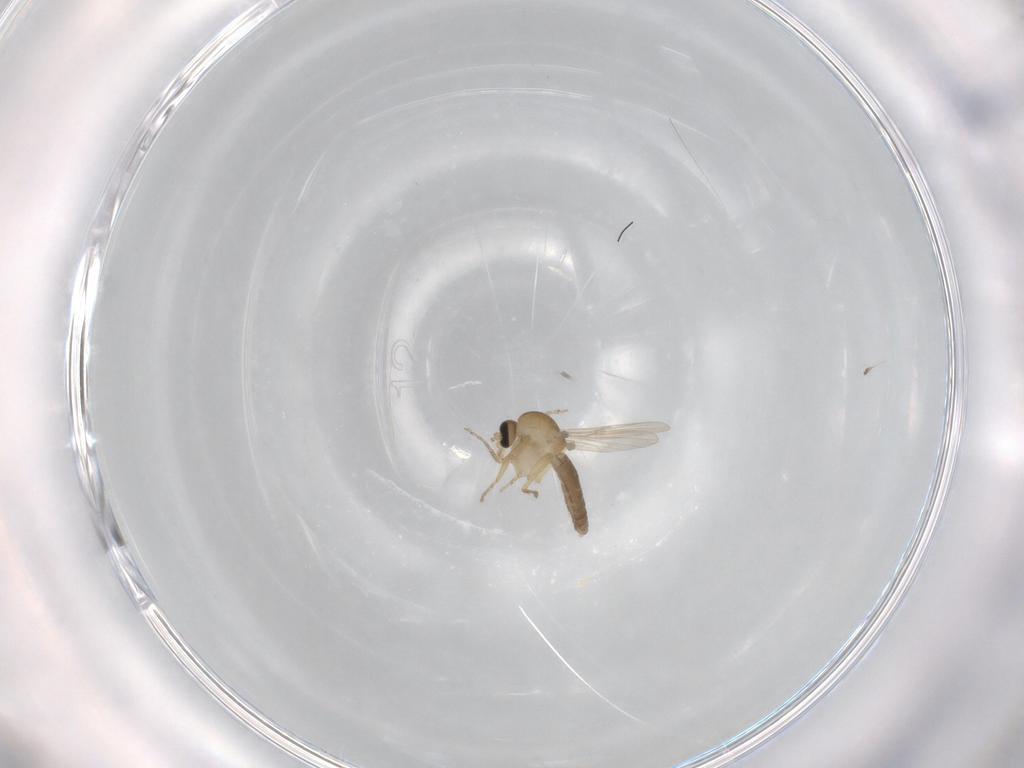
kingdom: Animalia
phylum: Arthropoda
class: Insecta
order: Diptera
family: Ceratopogonidae
